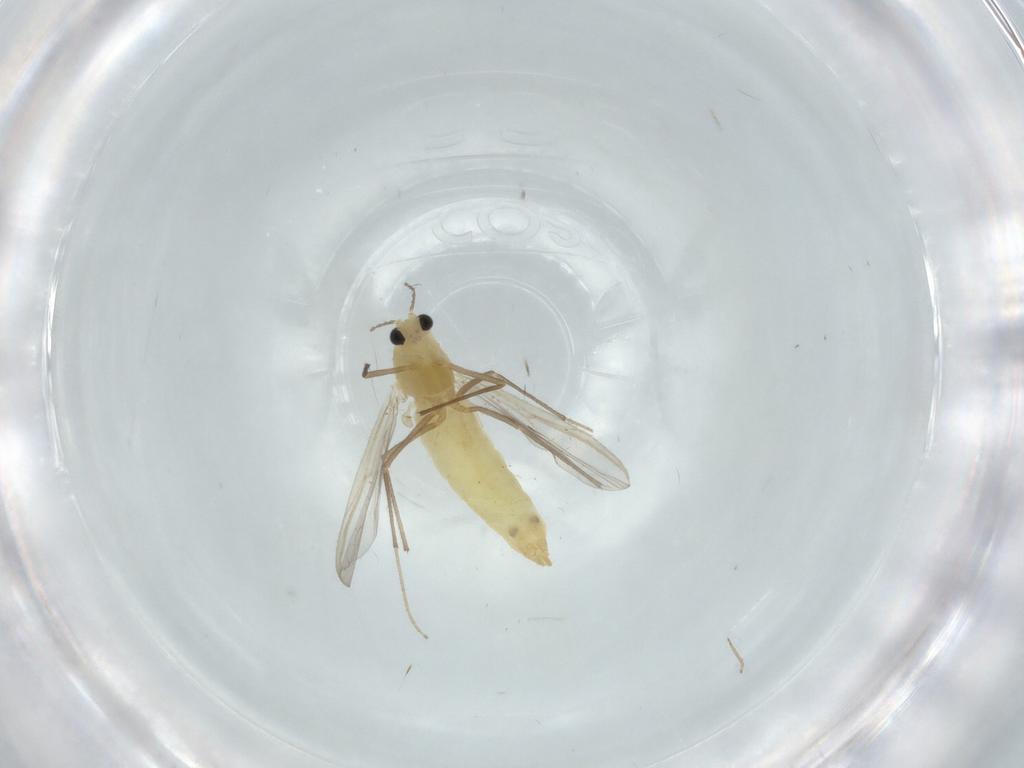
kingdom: Animalia
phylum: Arthropoda
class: Insecta
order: Diptera
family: Chironomidae
